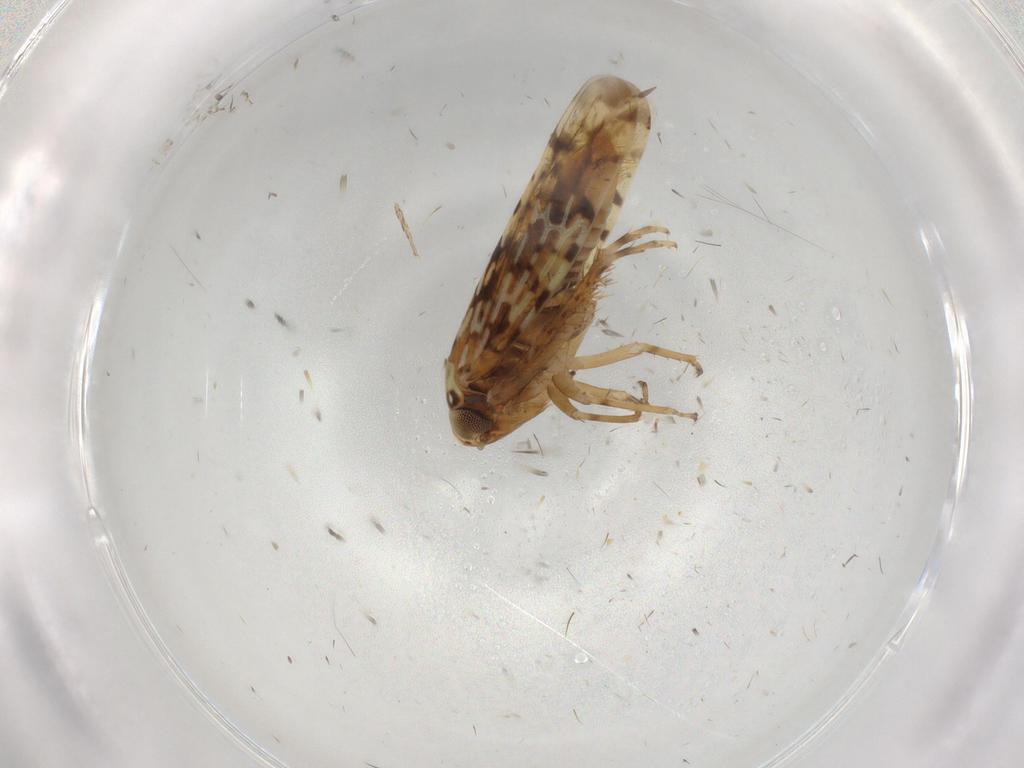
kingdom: Animalia
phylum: Arthropoda
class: Insecta
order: Hemiptera
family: Cicadellidae
